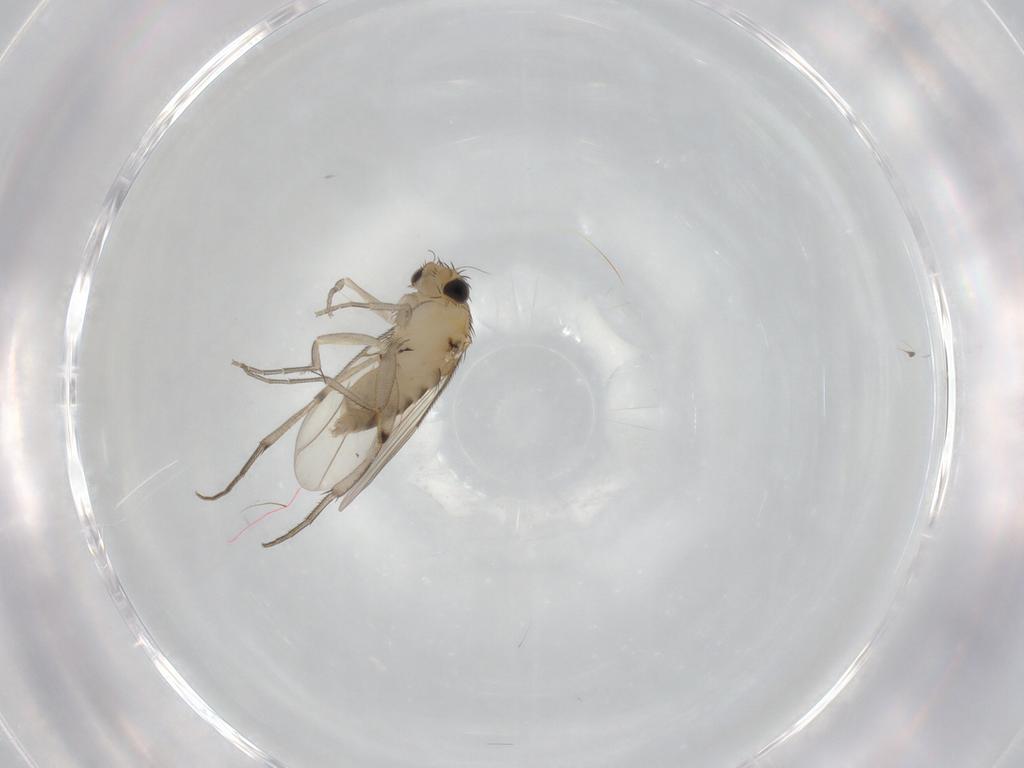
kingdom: Animalia
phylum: Arthropoda
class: Insecta
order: Diptera
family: Phoridae
